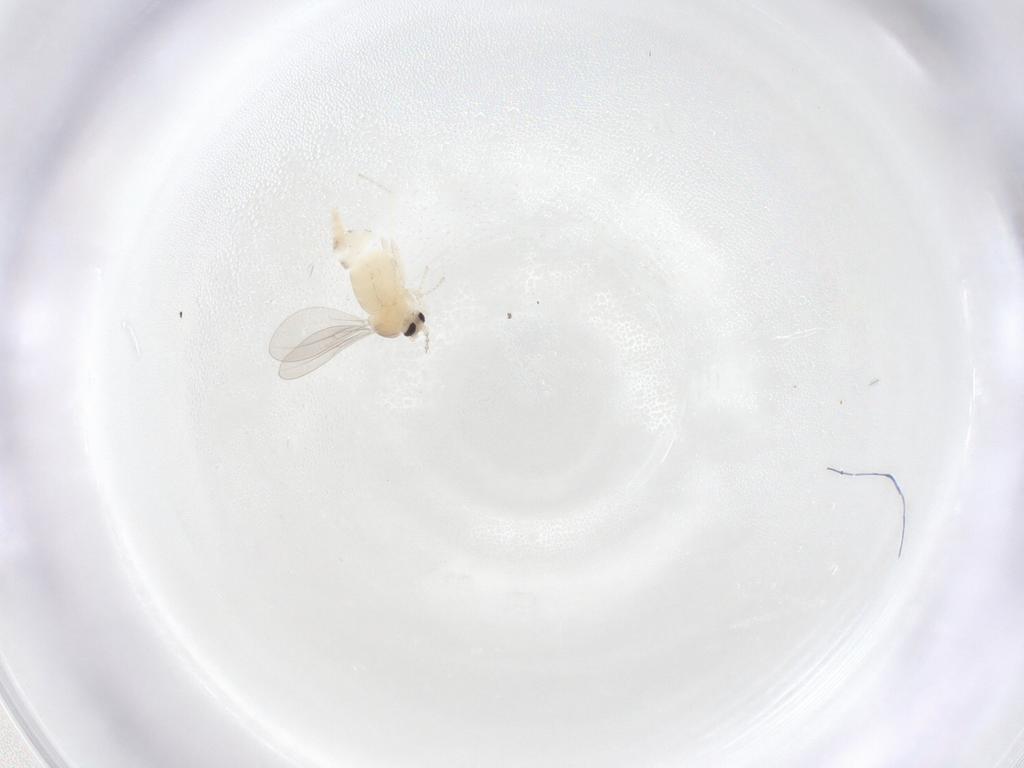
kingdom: Animalia
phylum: Arthropoda
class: Insecta
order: Diptera
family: Cecidomyiidae
